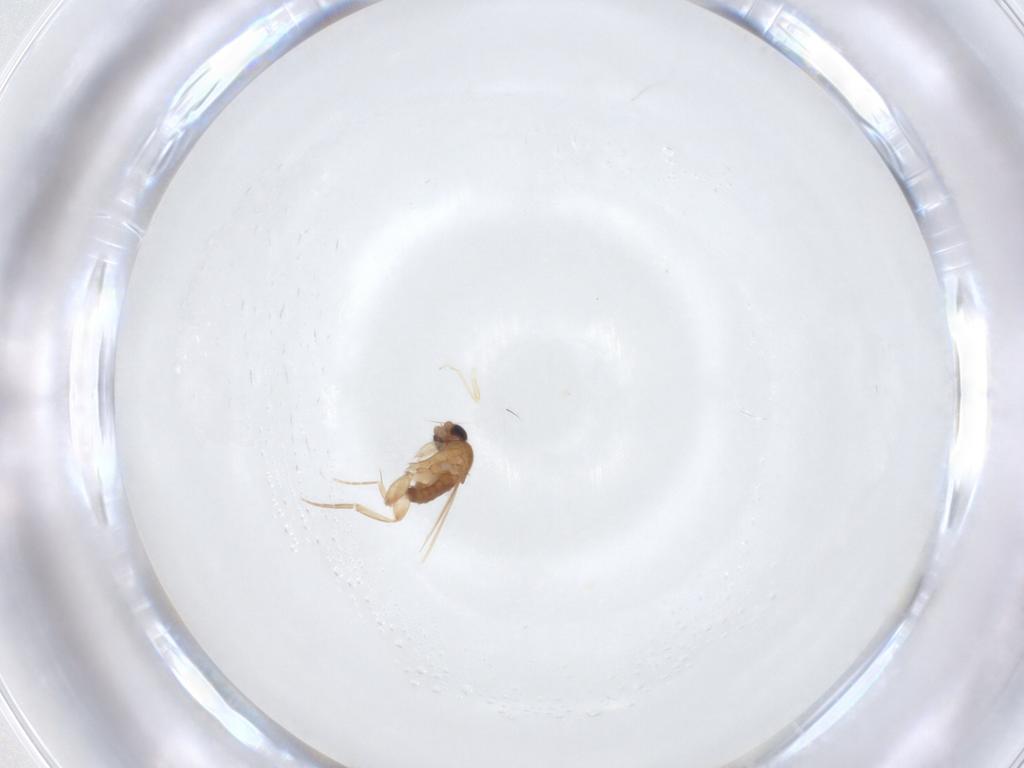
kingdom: Animalia
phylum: Arthropoda
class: Insecta
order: Diptera
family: Phoridae
